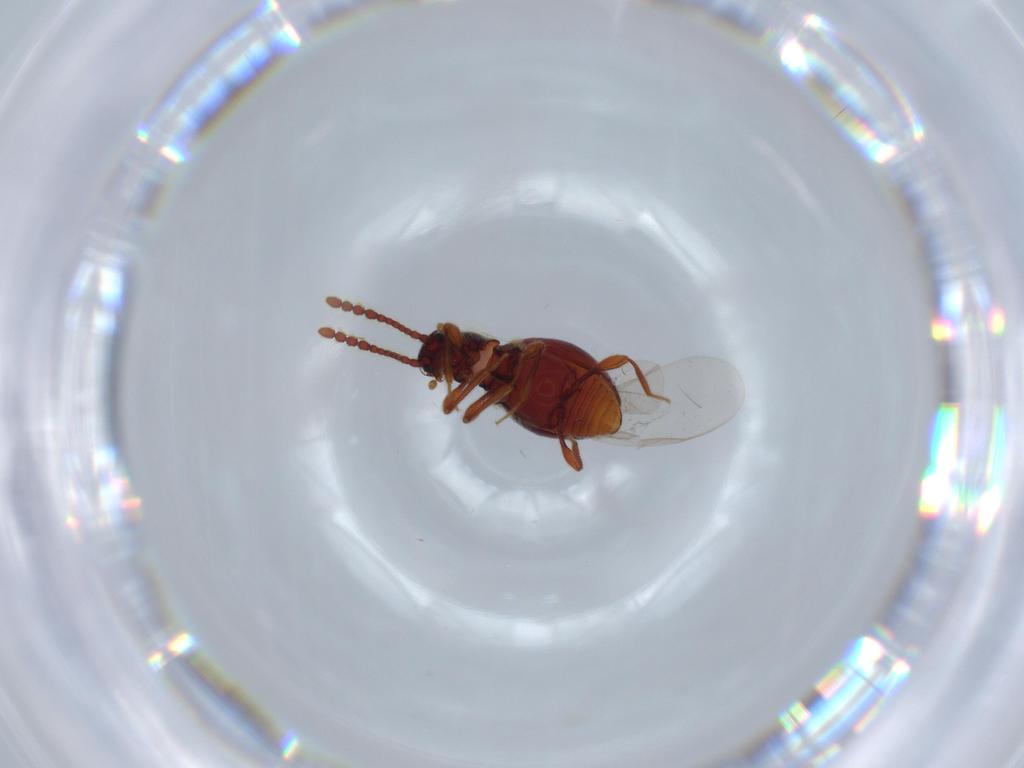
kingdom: Animalia
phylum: Arthropoda
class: Insecta
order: Coleoptera
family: Staphylinidae
